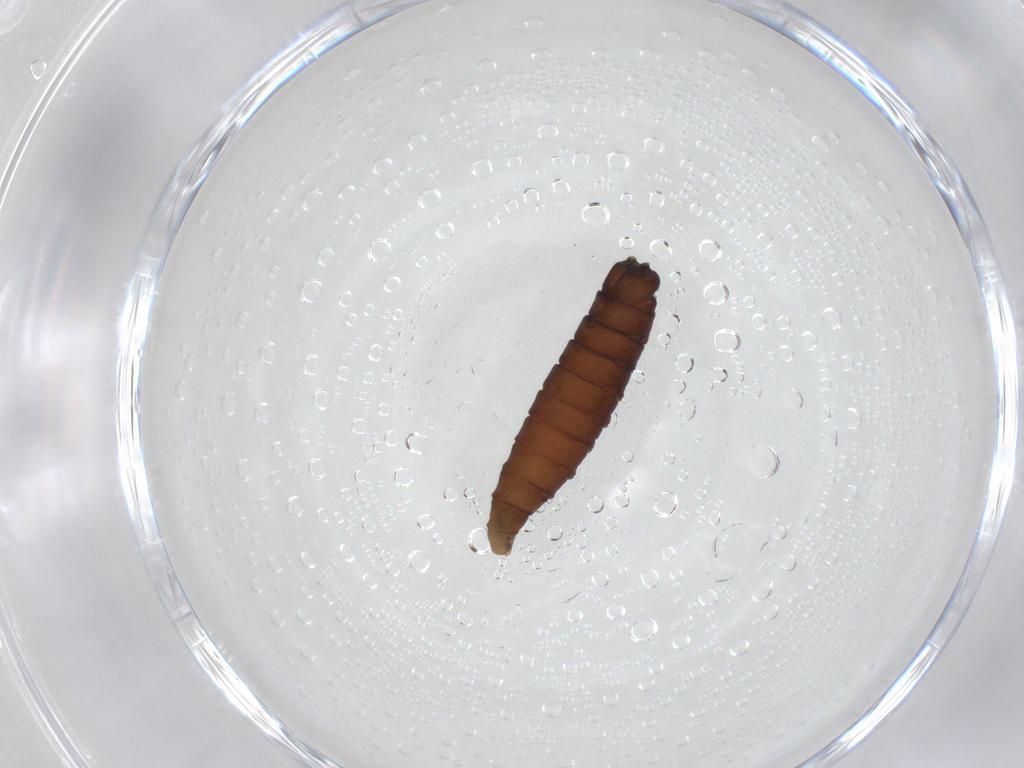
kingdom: Animalia
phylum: Arthropoda
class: Insecta
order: Diptera
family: Sphaeroceridae
